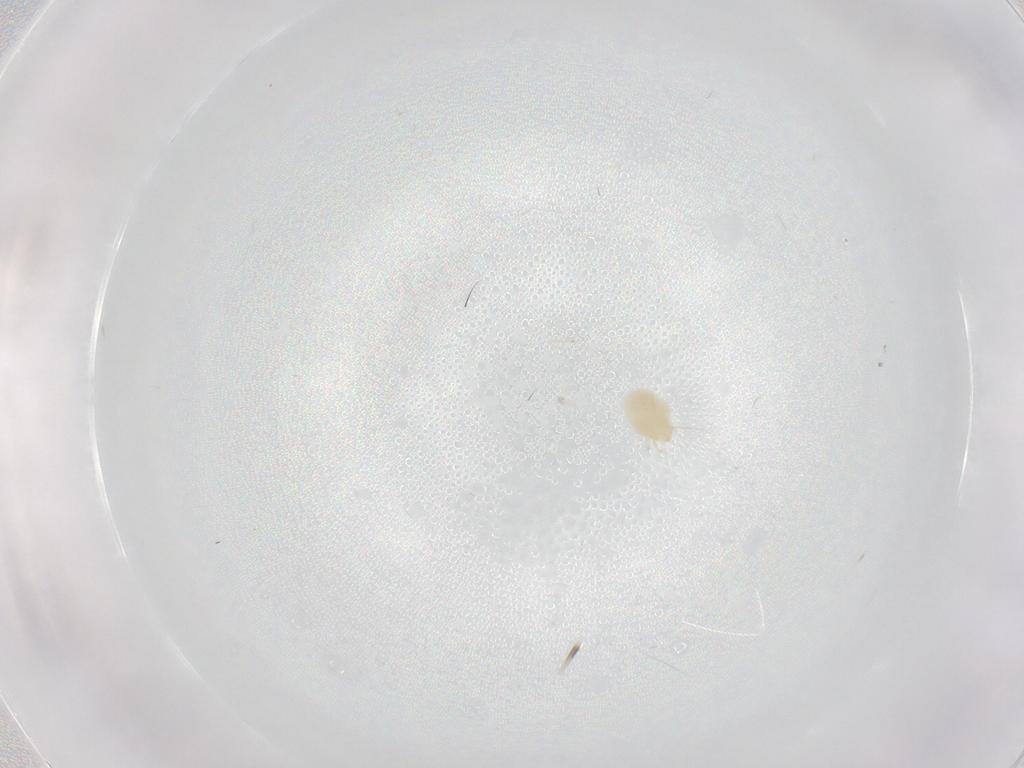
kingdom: Animalia
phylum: Arthropoda
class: Arachnida
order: Trombidiformes
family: Microtrombidiidae
